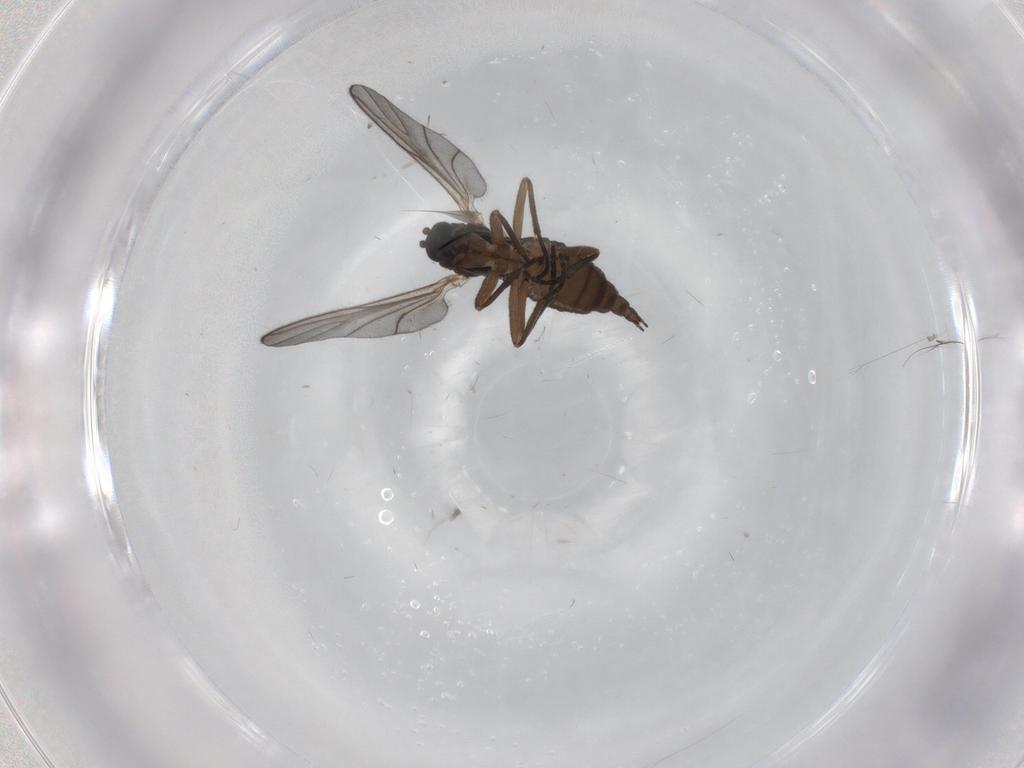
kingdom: Animalia
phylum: Arthropoda
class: Insecta
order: Diptera
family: Sciaridae
